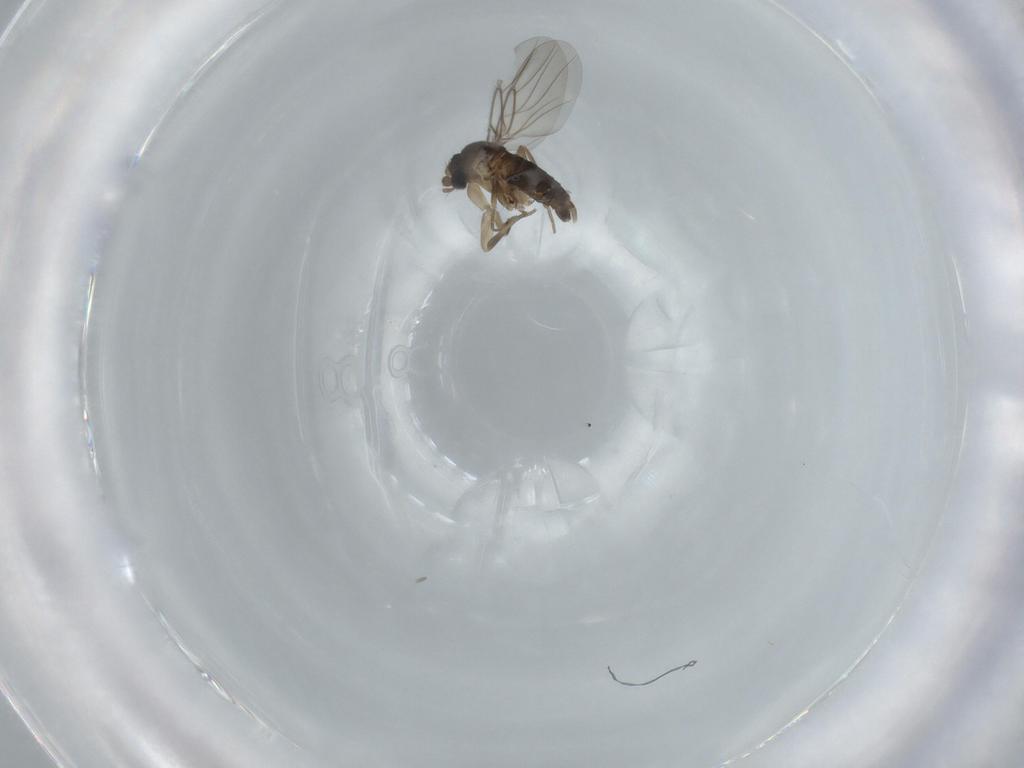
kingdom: Animalia
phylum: Arthropoda
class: Insecta
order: Diptera
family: Phoridae
